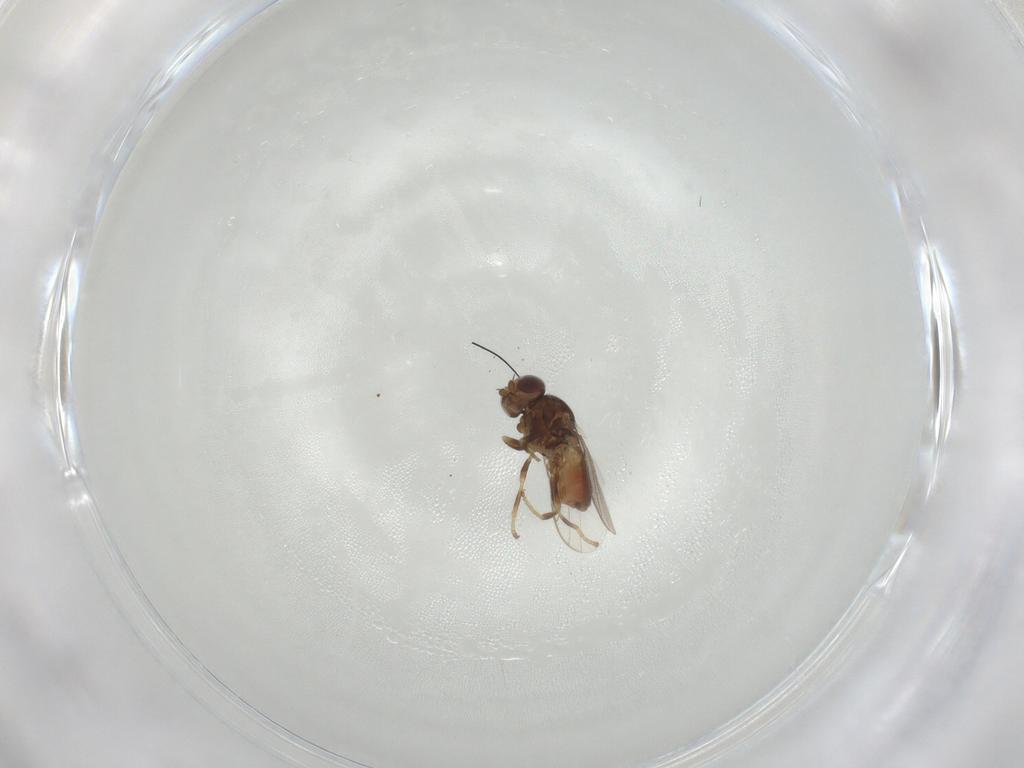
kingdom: Animalia
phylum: Arthropoda
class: Insecta
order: Diptera
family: Chloropidae
